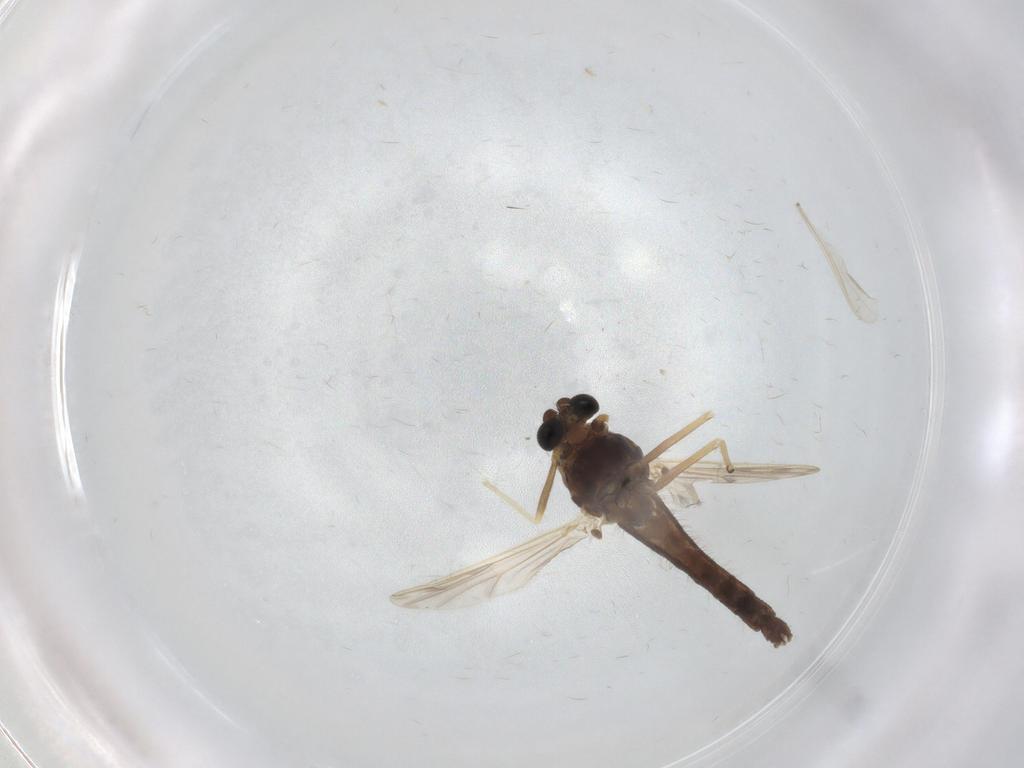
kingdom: Animalia
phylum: Arthropoda
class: Insecta
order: Diptera
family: Chironomidae
